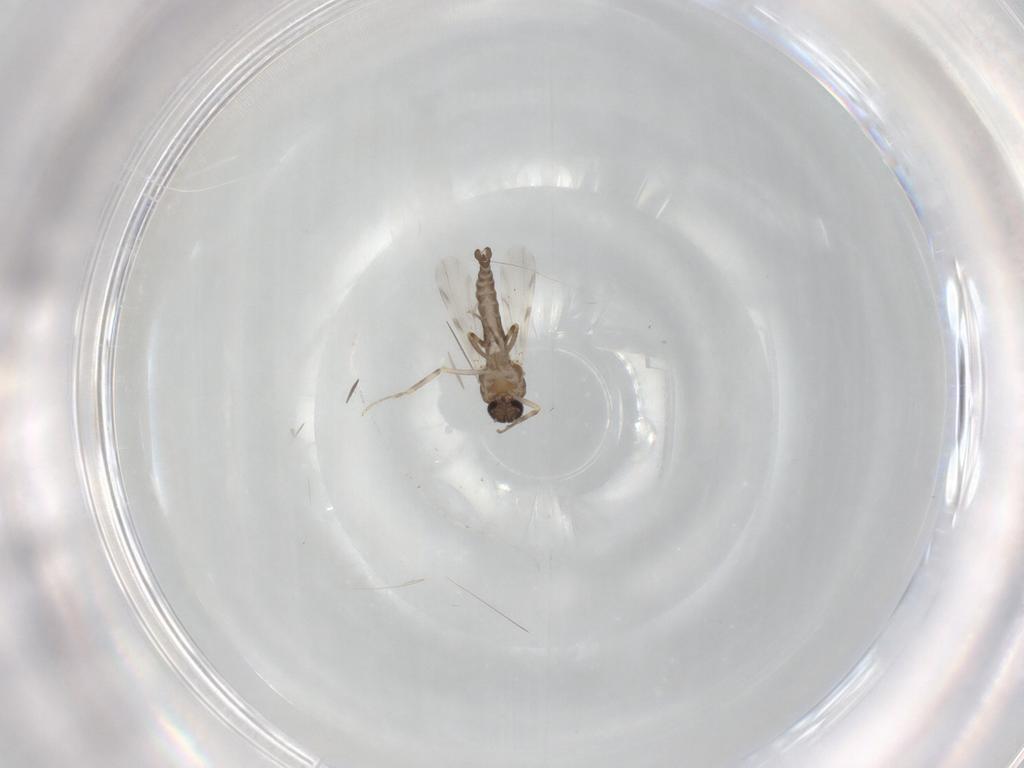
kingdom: Animalia
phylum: Arthropoda
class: Insecta
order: Diptera
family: Ceratopogonidae
